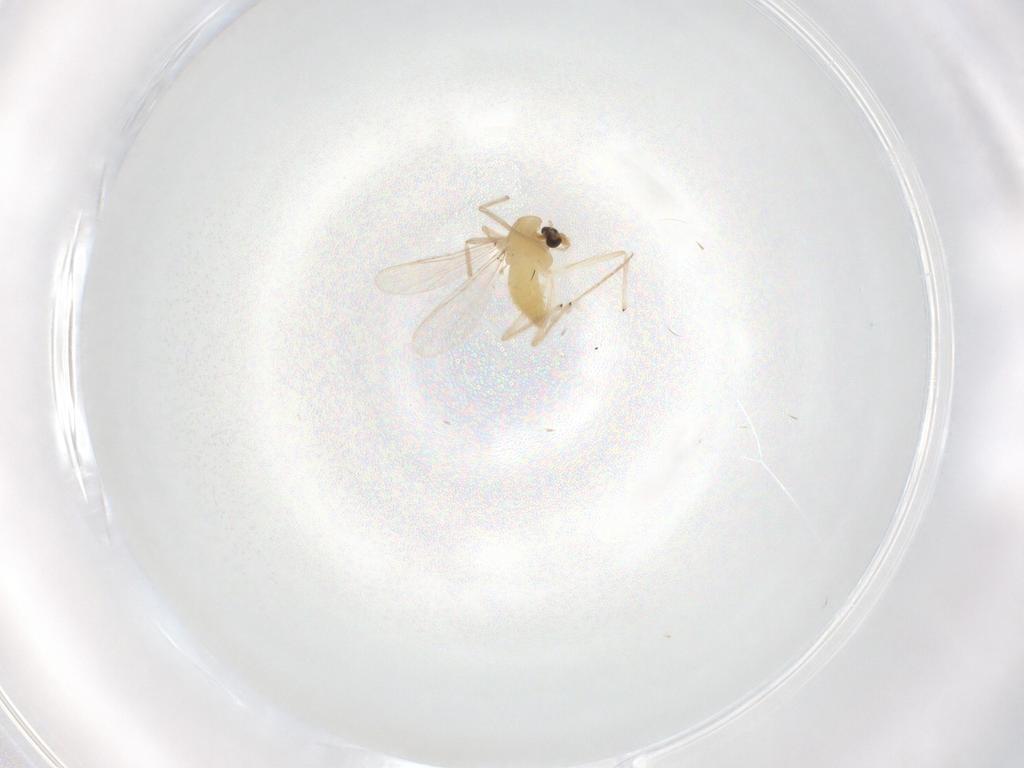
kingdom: Animalia
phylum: Arthropoda
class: Insecta
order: Diptera
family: Chironomidae
